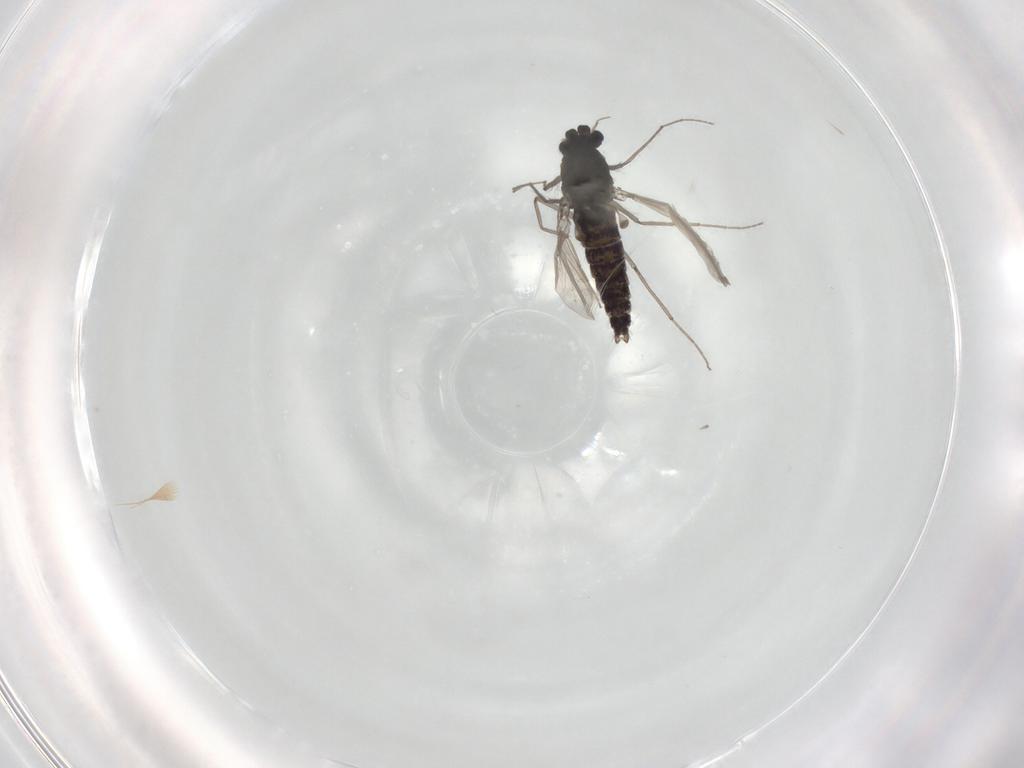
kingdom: Animalia
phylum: Arthropoda
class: Insecta
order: Diptera
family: Chironomidae
